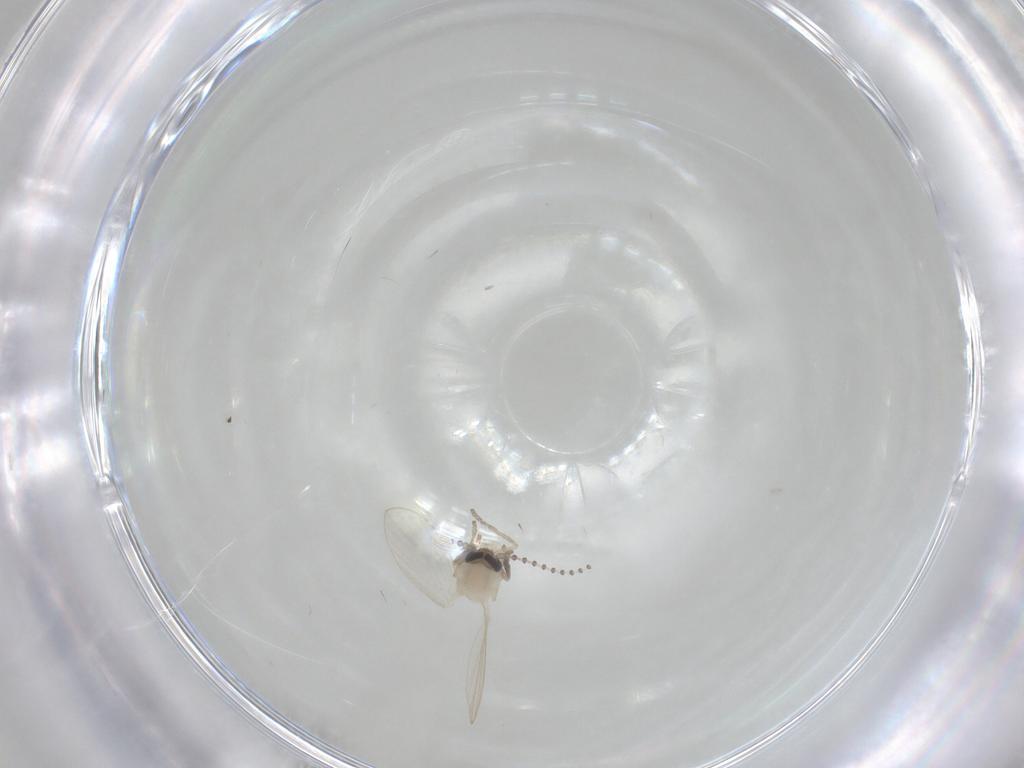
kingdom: Animalia
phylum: Arthropoda
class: Insecta
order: Diptera
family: Psychodidae
